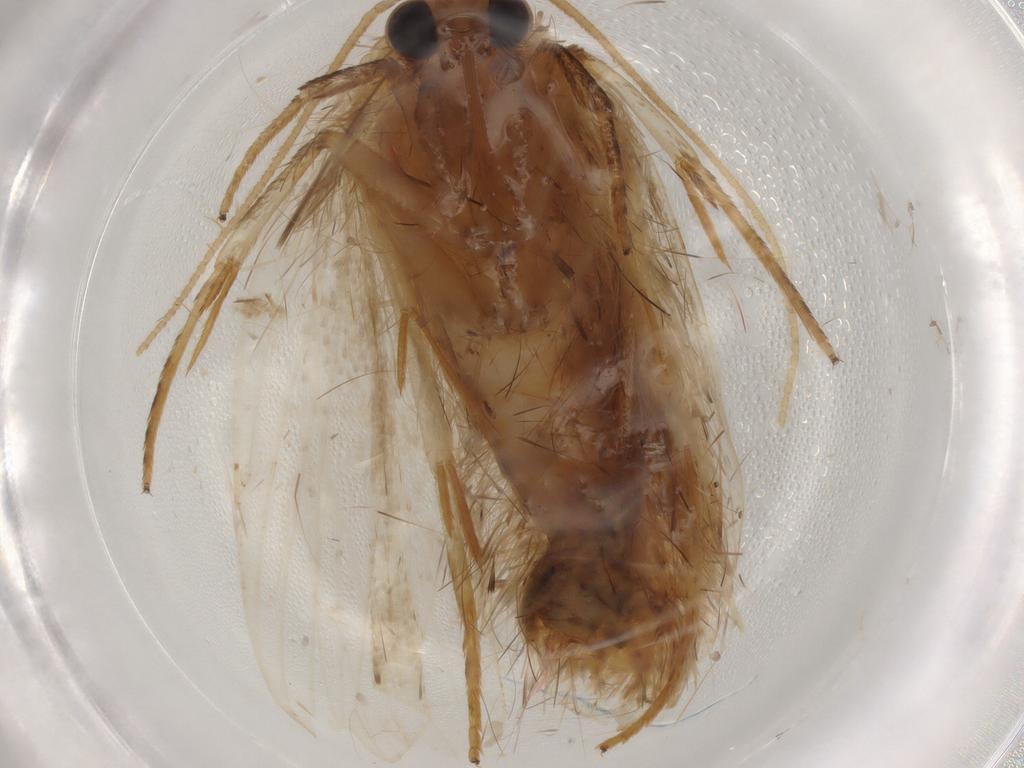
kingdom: Animalia
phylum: Arthropoda
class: Insecta
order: Lepidoptera
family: Depressariidae
